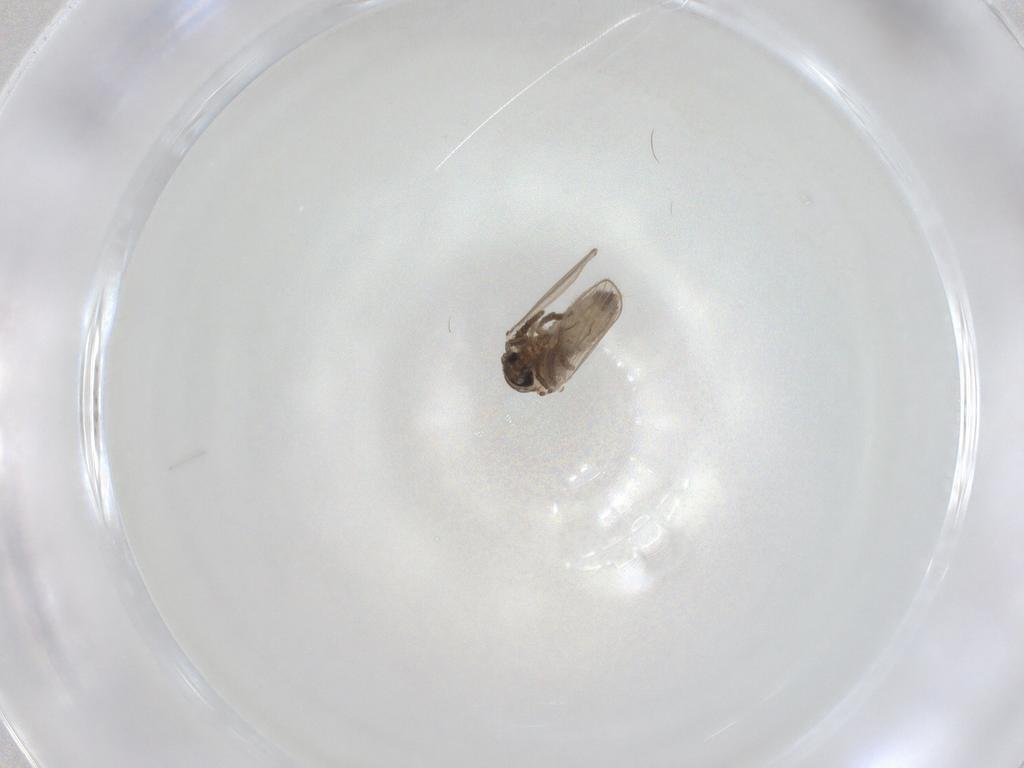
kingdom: Animalia
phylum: Arthropoda
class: Insecta
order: Diptera
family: Psychodidae
